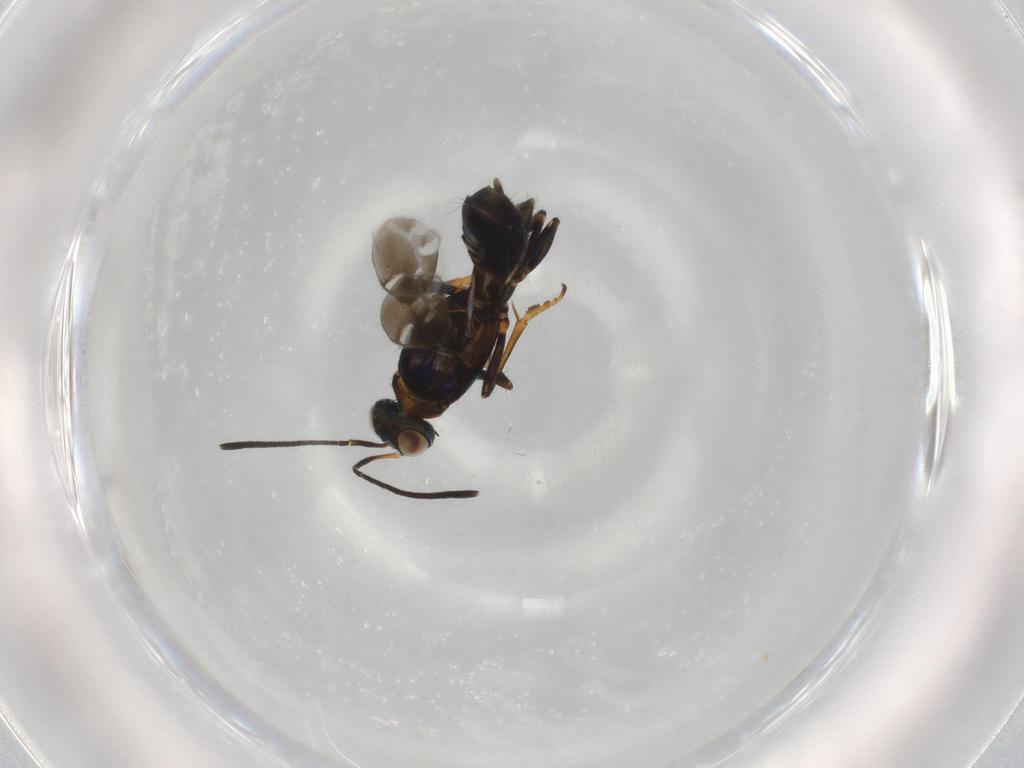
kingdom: Animalia
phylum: Arthropoda
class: Insecta
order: Hymenoptera
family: Eupelmidae
